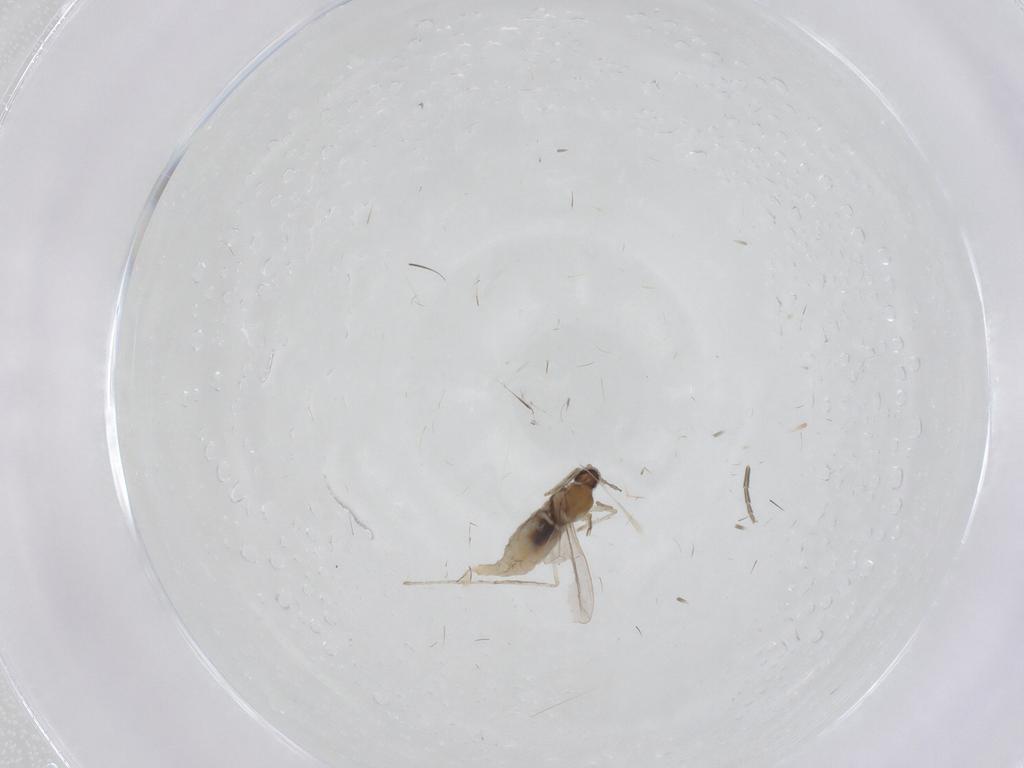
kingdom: Animalia
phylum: Arthropoda
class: Insecta
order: Diptera
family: Cecidomyiidae
